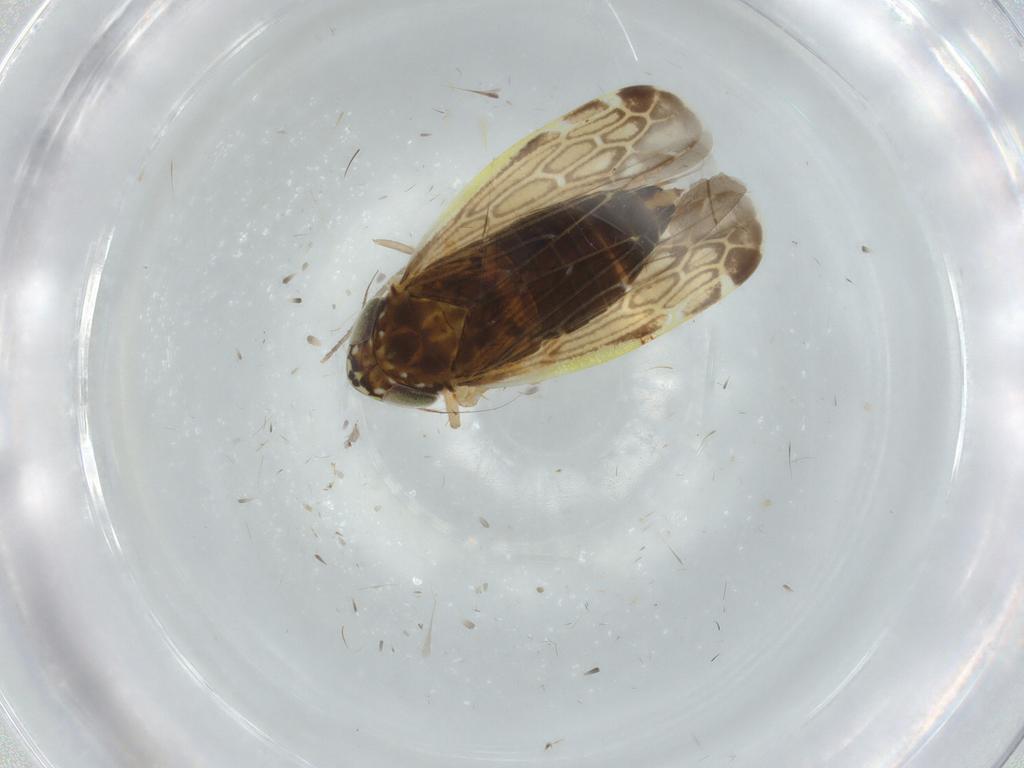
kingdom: Animalia
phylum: Arthropoda
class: Insecta
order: Hemiptera
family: Cicadellidae
